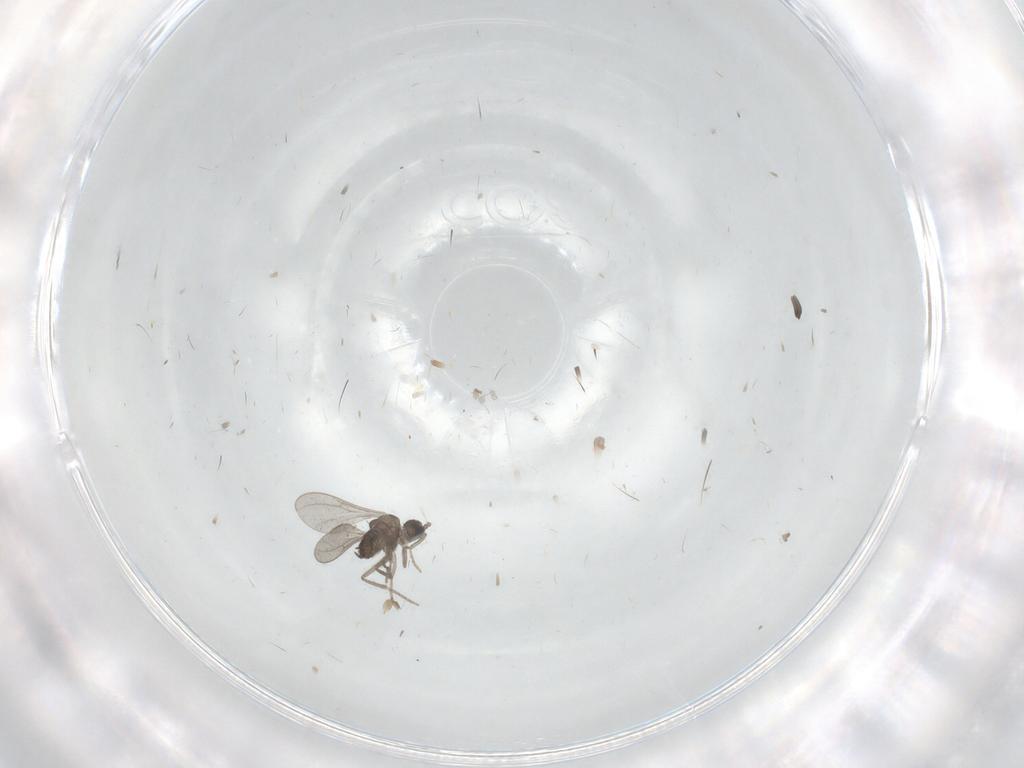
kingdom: Animalia
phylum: Arthropoda
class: Insecta
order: Diptera
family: Cecidomyiidae
